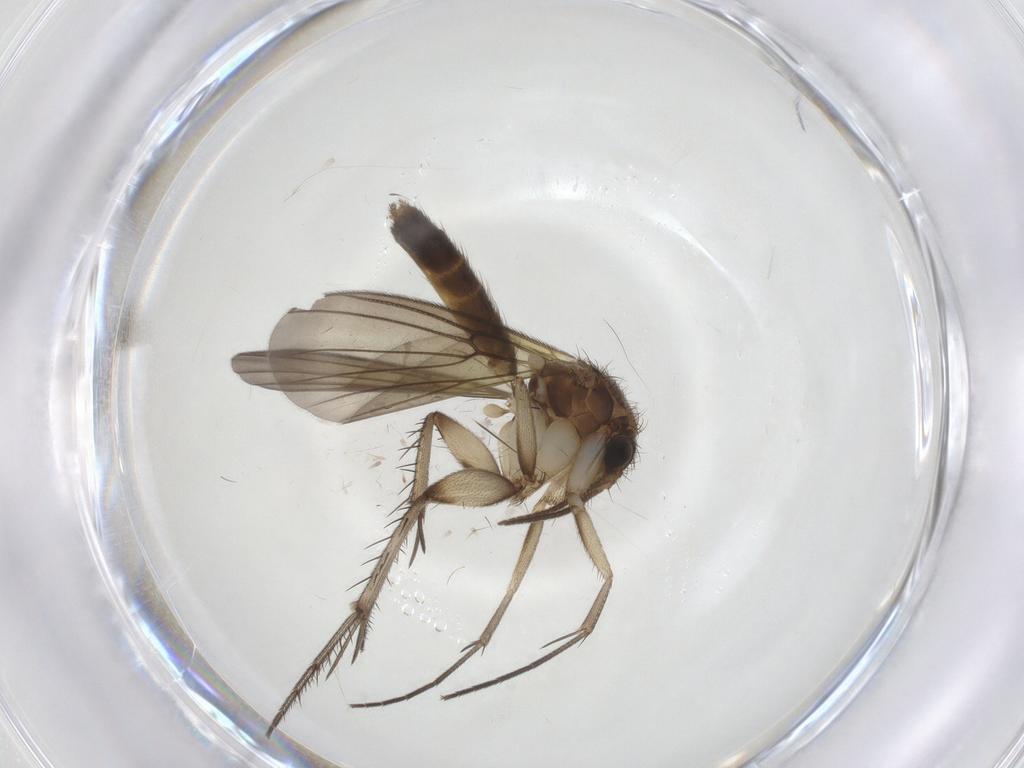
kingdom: Animalia
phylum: Arthropoda
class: Insecta
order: Diptera
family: Mycetophilidae
